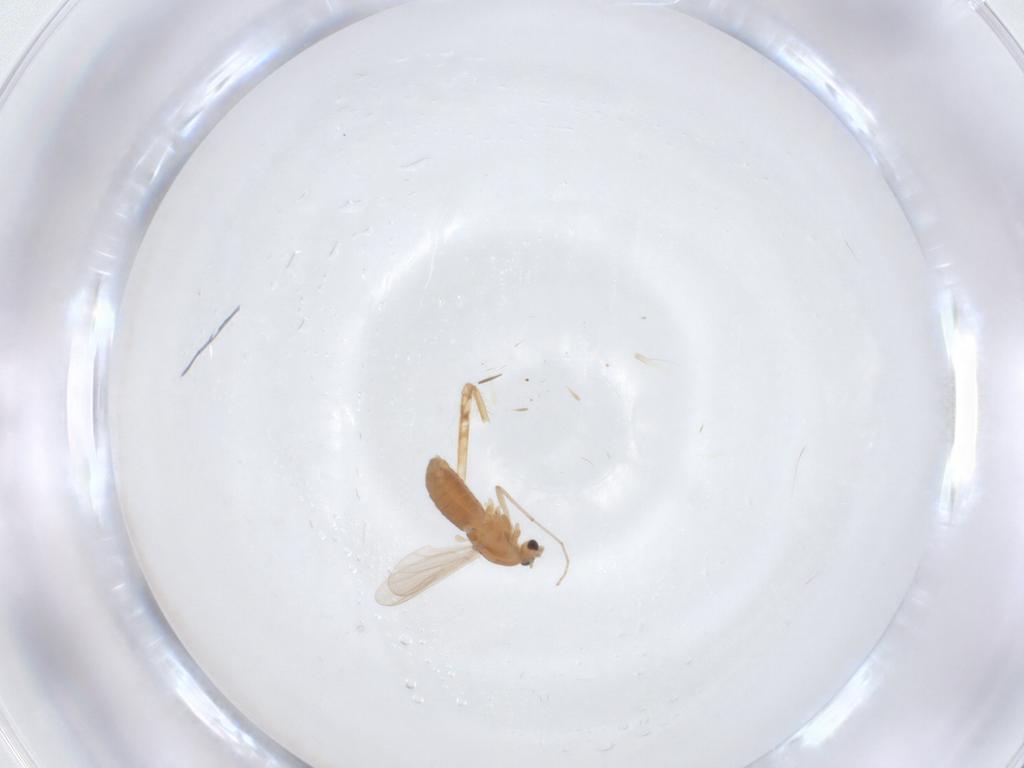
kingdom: Animalia
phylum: Arthropoda
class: Insecta
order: Diptera
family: Chironomidae
